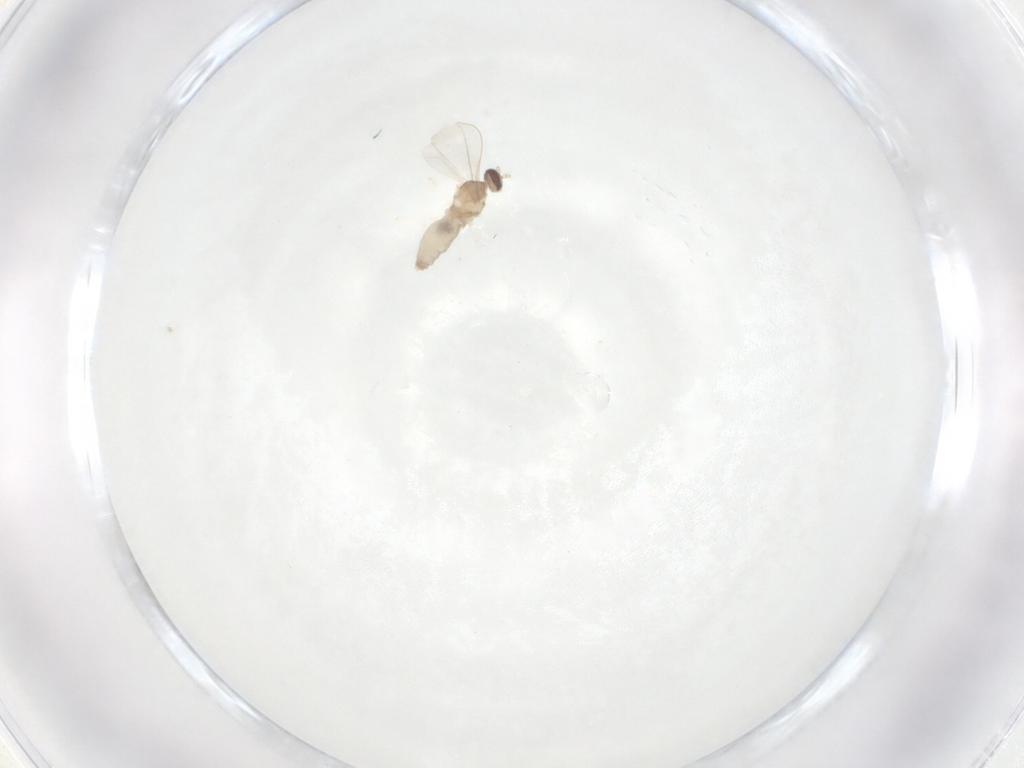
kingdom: Animalia
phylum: Arthropoda
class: Insecta
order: Diptera
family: Cecidomyiidae
